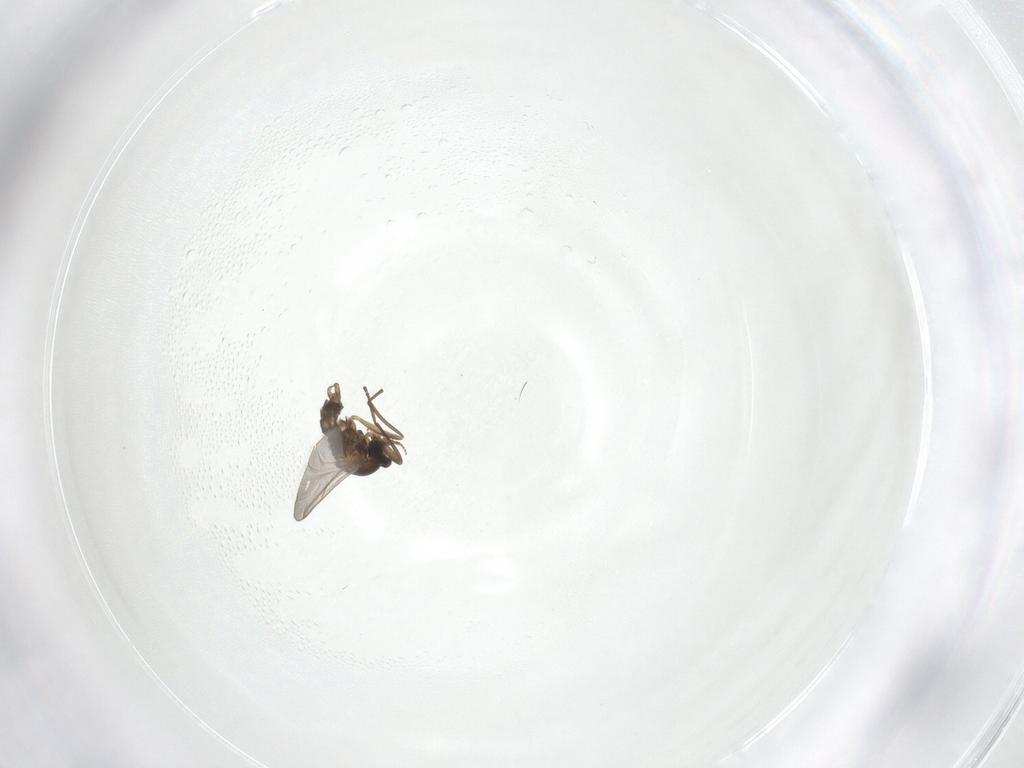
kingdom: Animalia
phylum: Arthropoda
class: Insecta
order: Diptera
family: Cecidomyiidae
